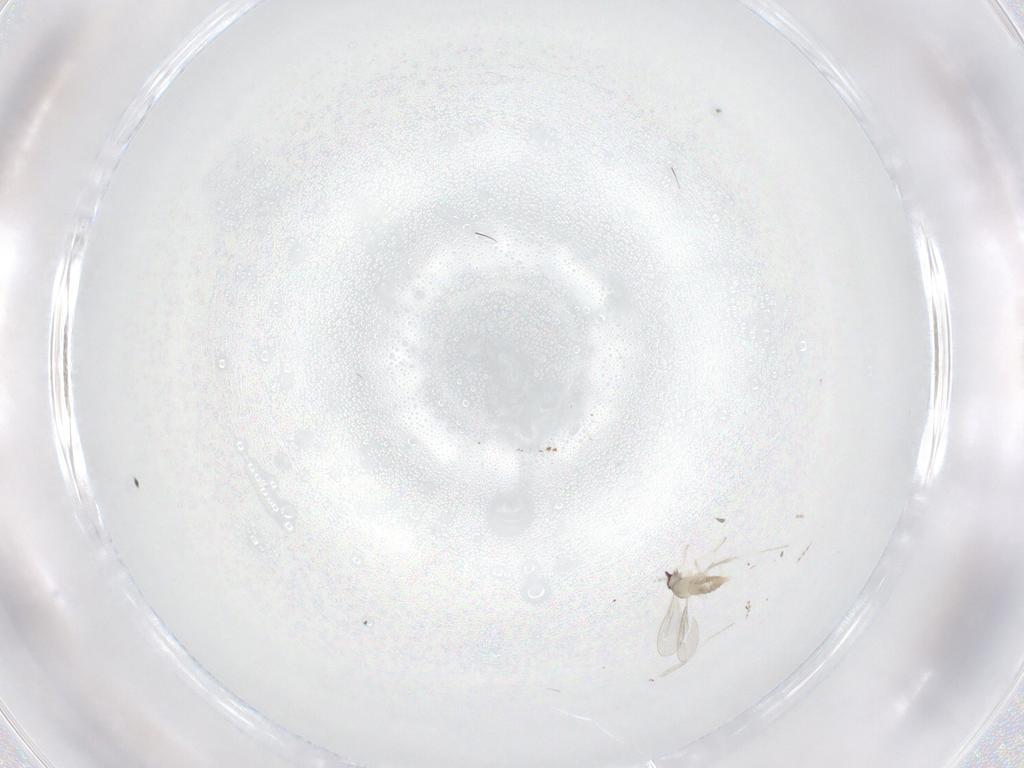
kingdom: Animalia
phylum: Arthropoda
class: Insecta
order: Diptera
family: Cecidomyiidae
